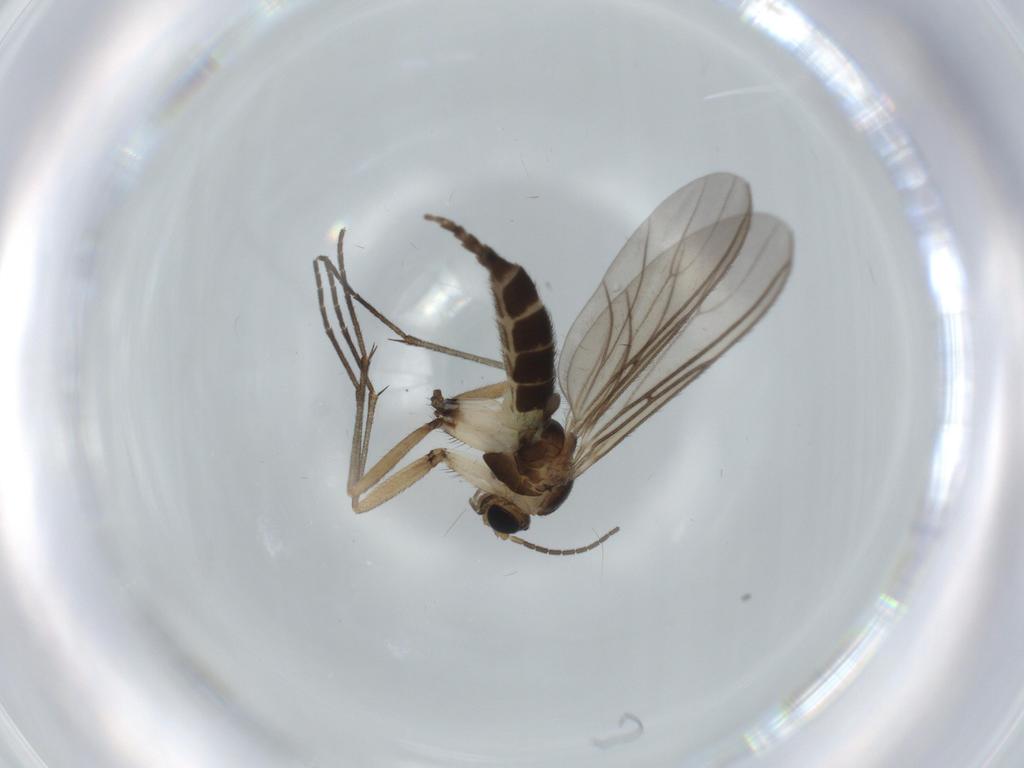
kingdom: Animalia
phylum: Arthropoda
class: Insecta
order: Diptera
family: Sciaridae
